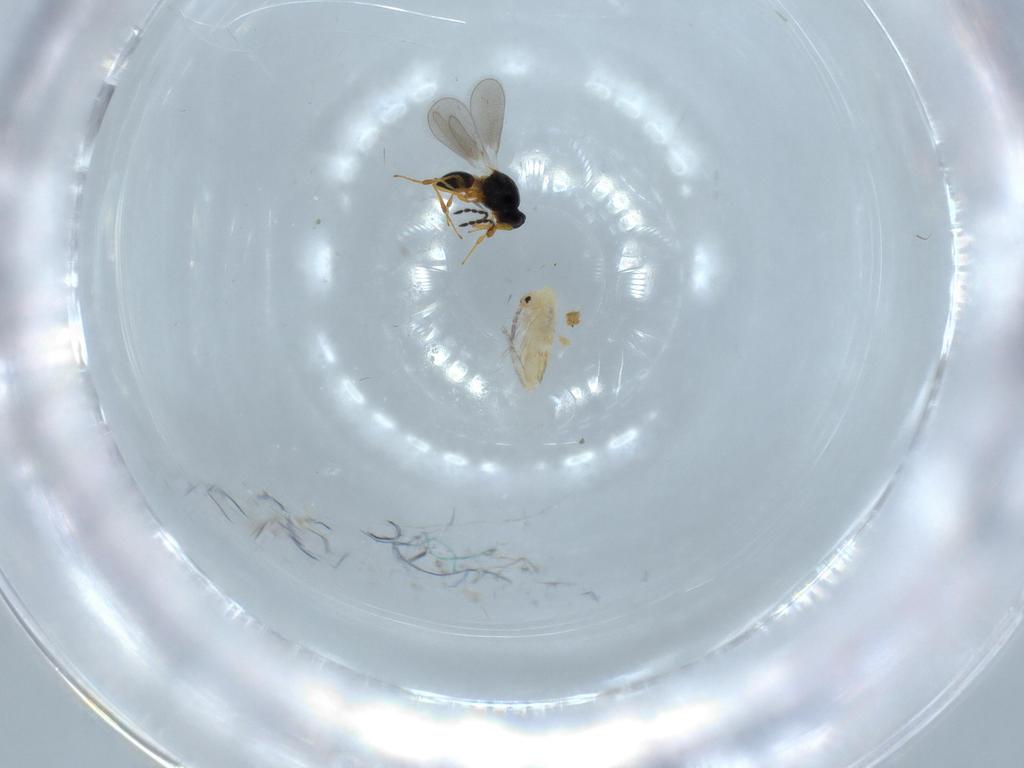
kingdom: Animalia
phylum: Arthropoda
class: Collembola
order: Entomobryomorpha
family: Entomobryidae
